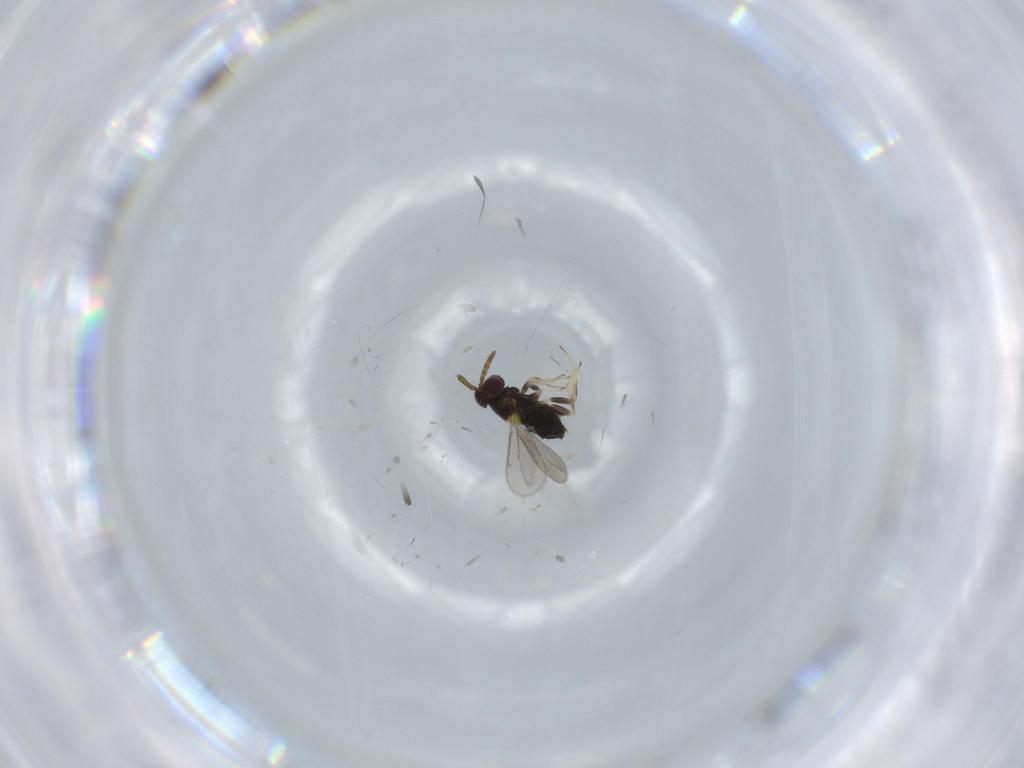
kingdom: Animalia
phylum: Arthropoda
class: Insecta
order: Hymenoptera
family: Aphelinidae
